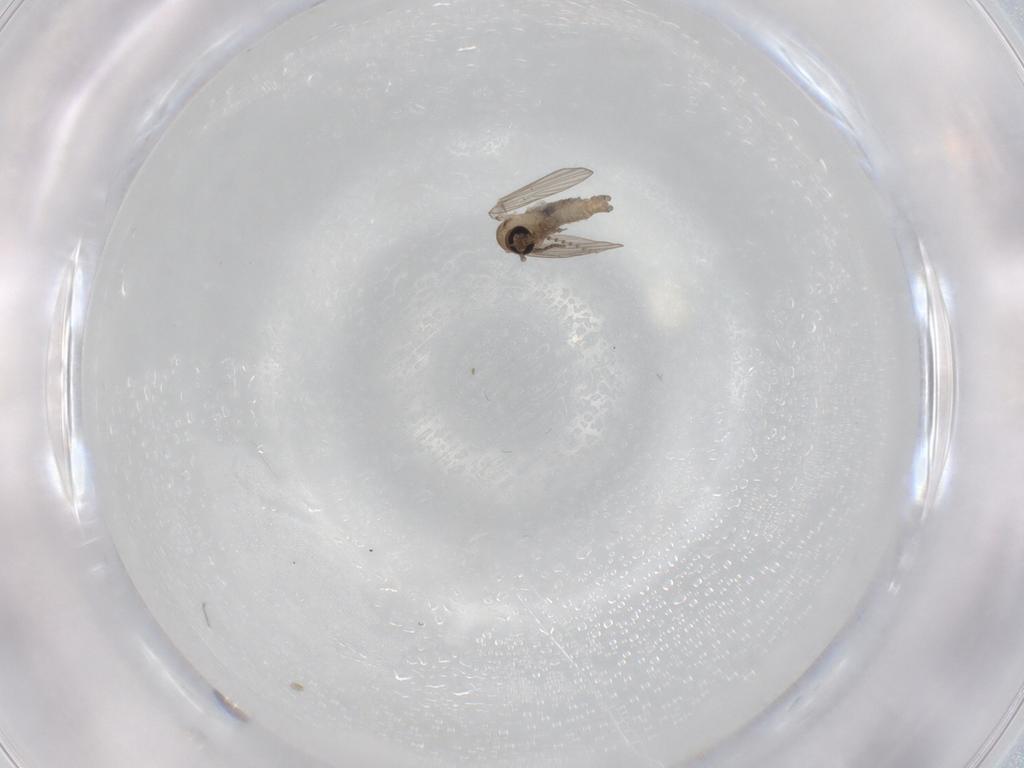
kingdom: Animalia
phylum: Arthropoda
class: Insecta
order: Diptera
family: Psychodidae
